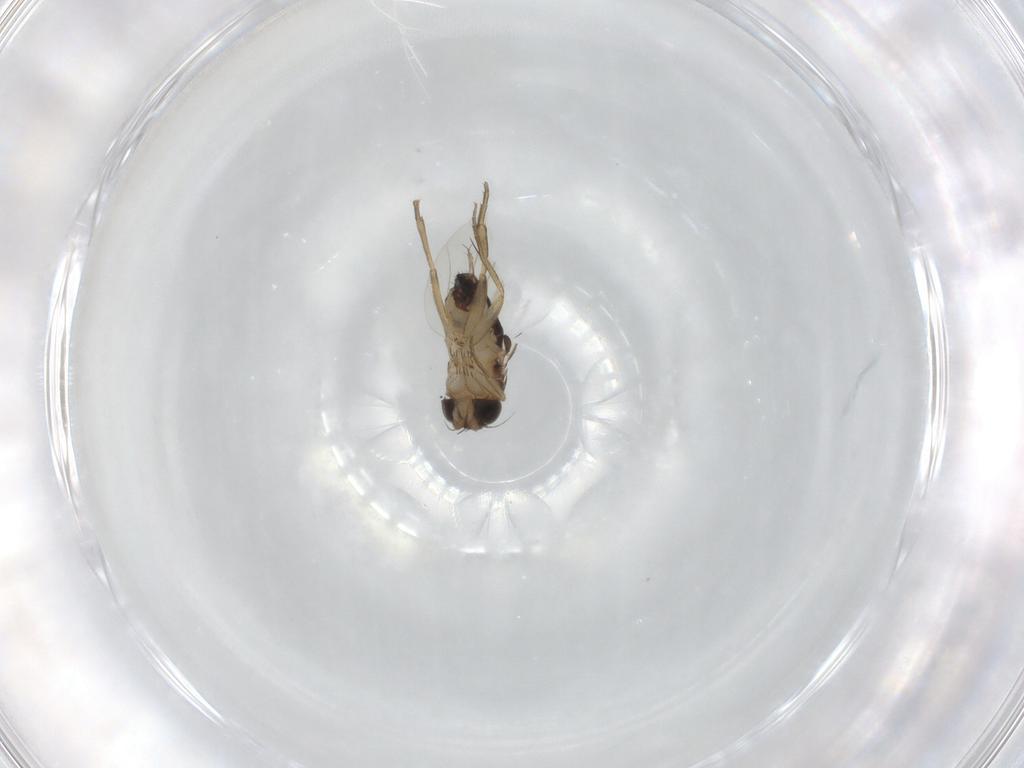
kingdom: Animalia
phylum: Arthropoda
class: Insecta
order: Diptera
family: Phoridae
